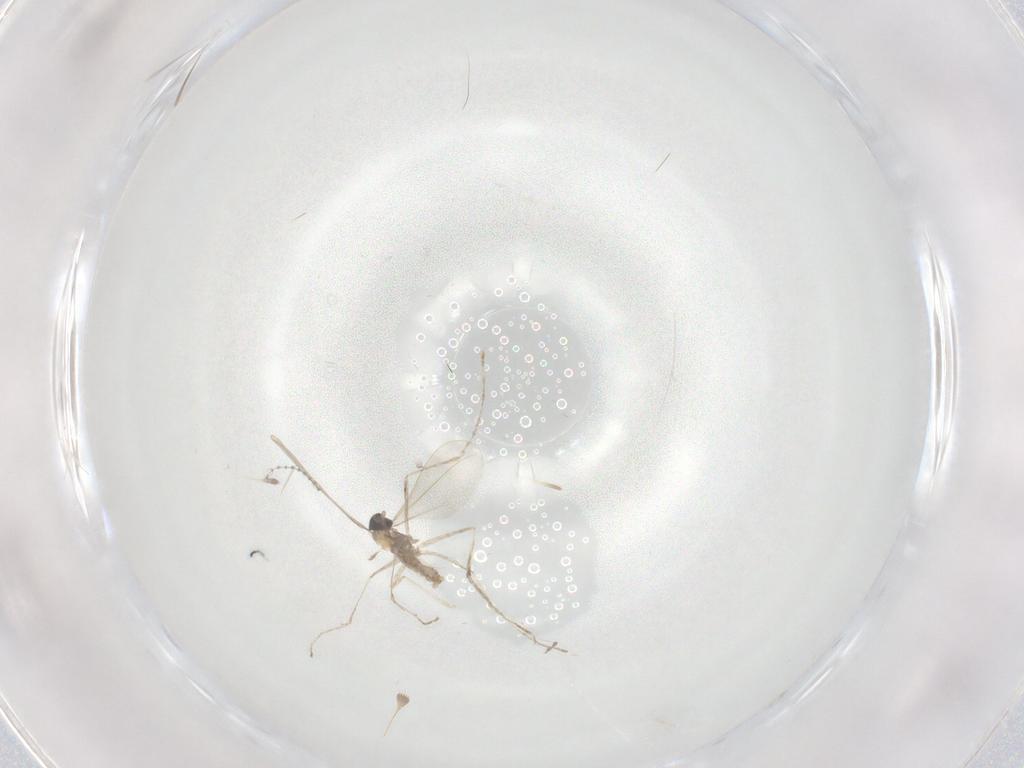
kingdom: Animalia
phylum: Arthropoda
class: Insecta
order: Diptera
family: Cecidomyiidae
